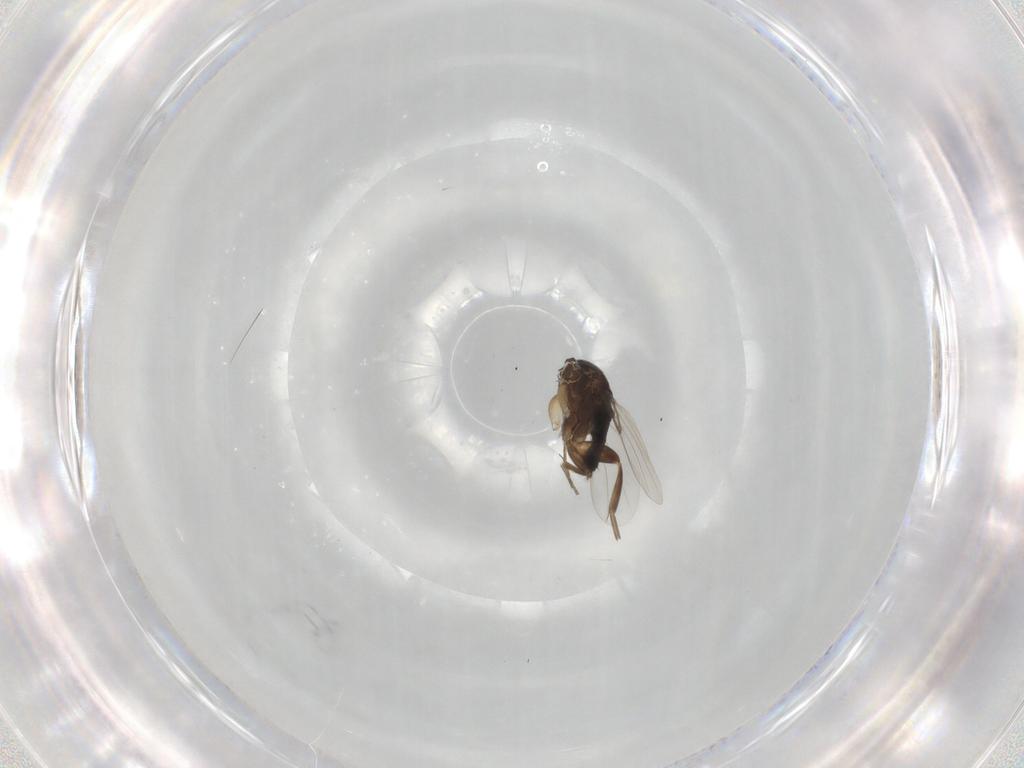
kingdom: Animalia
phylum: Arthropoda
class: Insecta
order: Diptera
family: Phoridae
